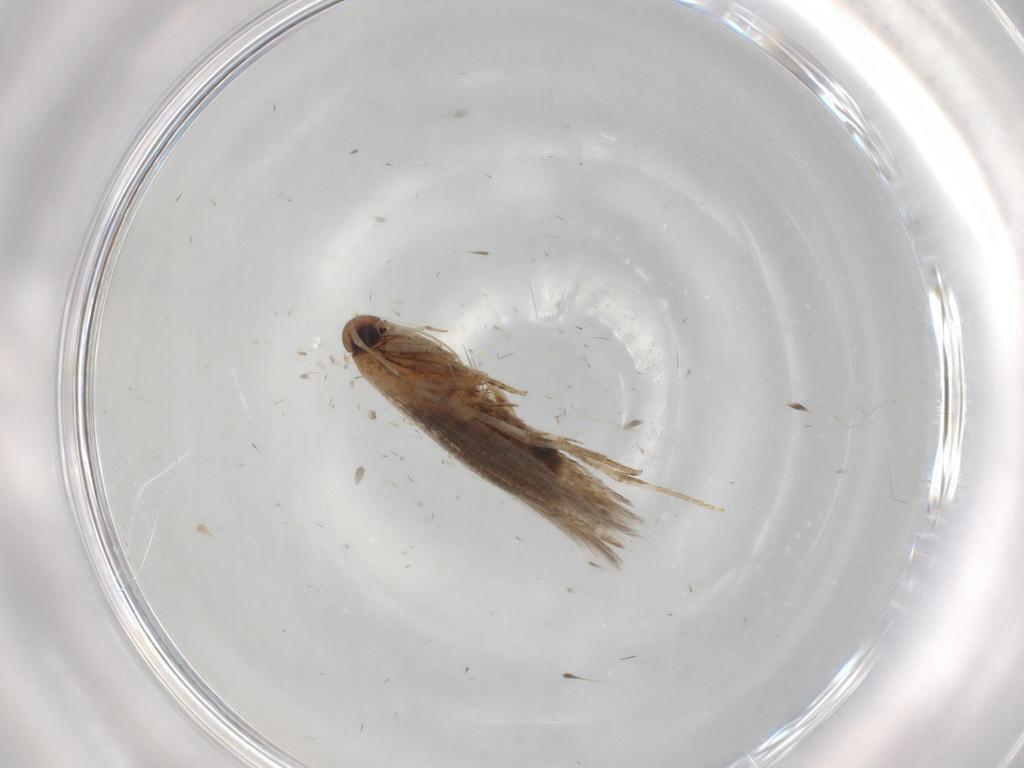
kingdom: Animalia
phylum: Arthropoda
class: Insecta
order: Lepidoptera
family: Cosmopterigidae
